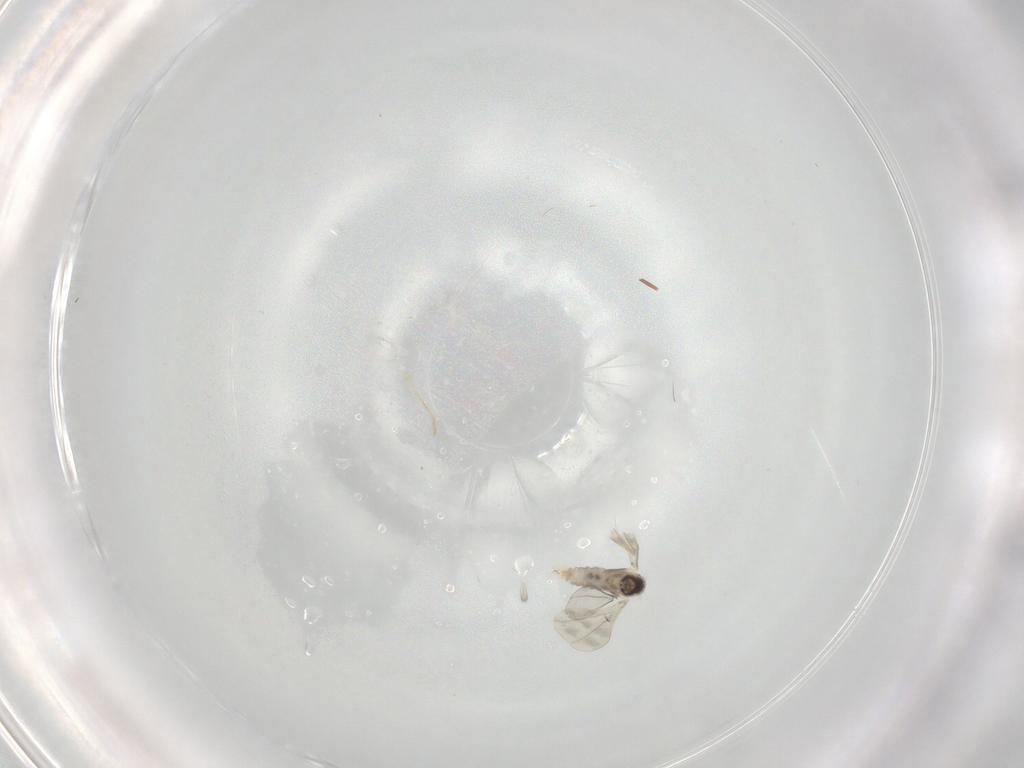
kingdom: Animalia
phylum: Arthropoda
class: Insecta
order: Diptera
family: Cecidomyiidae
